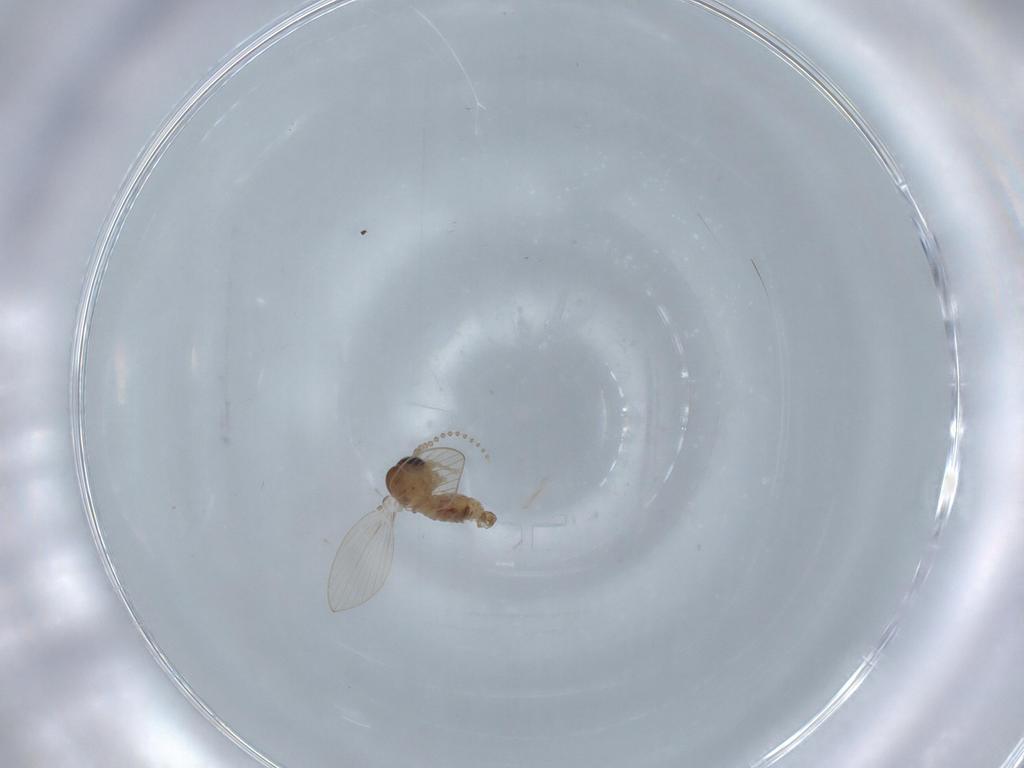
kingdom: Animalia
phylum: Arthropoda
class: Insecta
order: Diptera
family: Psychodidae
